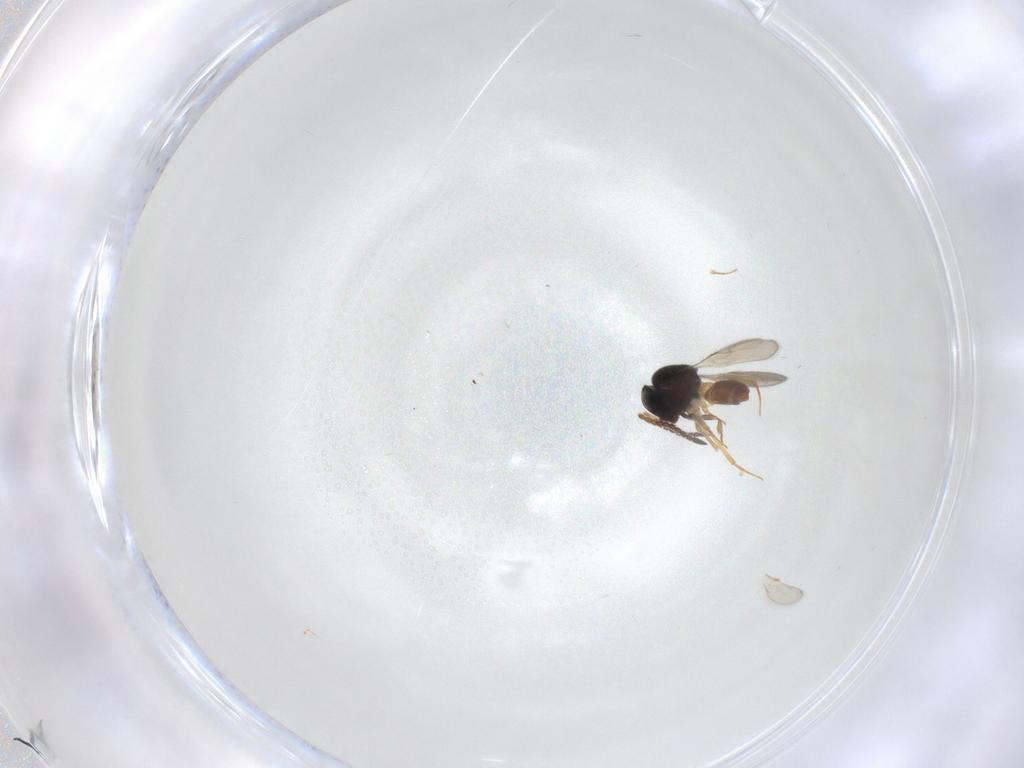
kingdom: Animalia
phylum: Arthropoda
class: Insecta
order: Hymenoptera
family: Scelionidae
